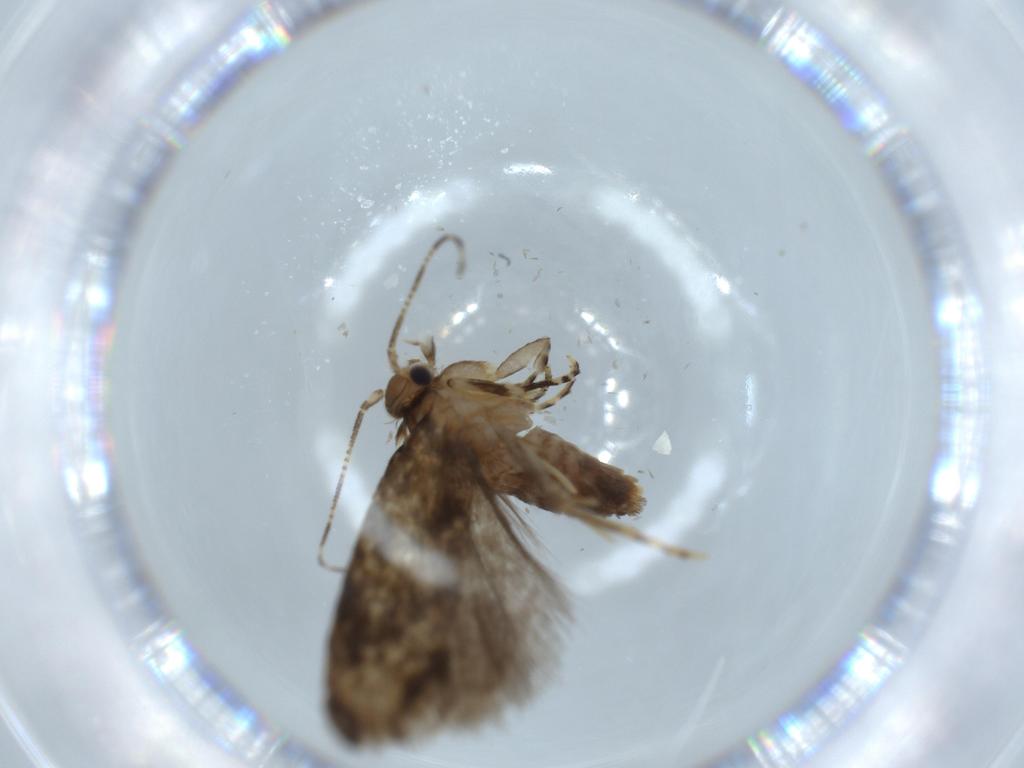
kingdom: Animalia
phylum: Arthropoda
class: Insecta
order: Lepidoptera
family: Tineidae
